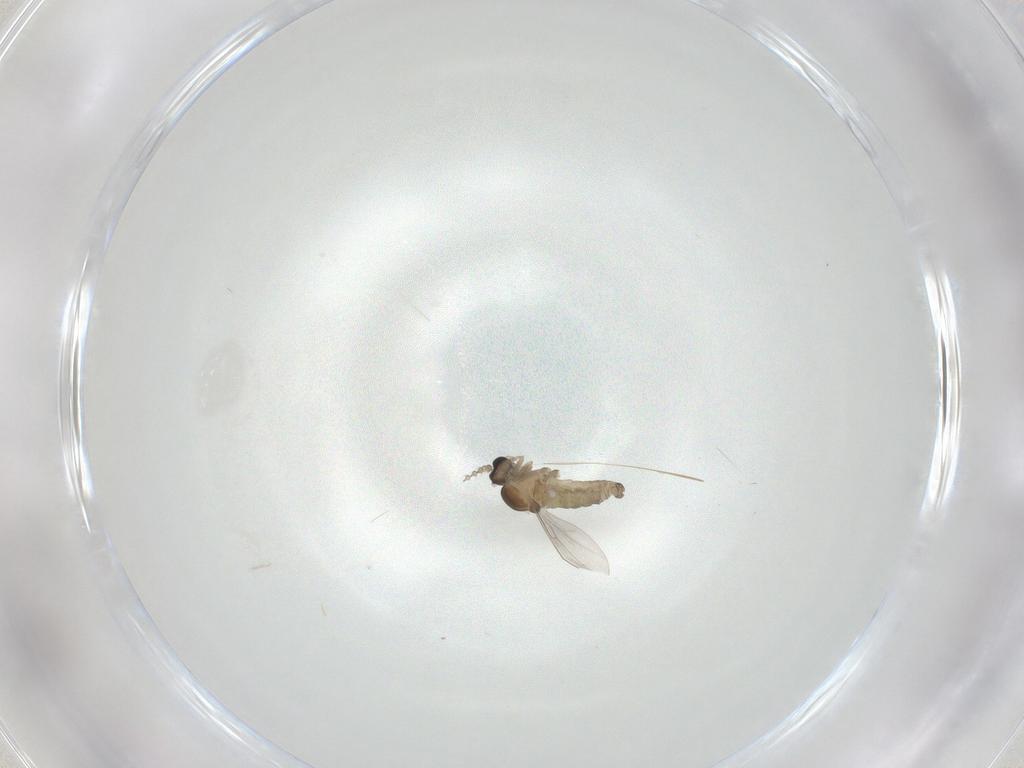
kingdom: Animalia
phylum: Arthropoda
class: Insecta
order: Diptera
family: Cecidomyiidae
